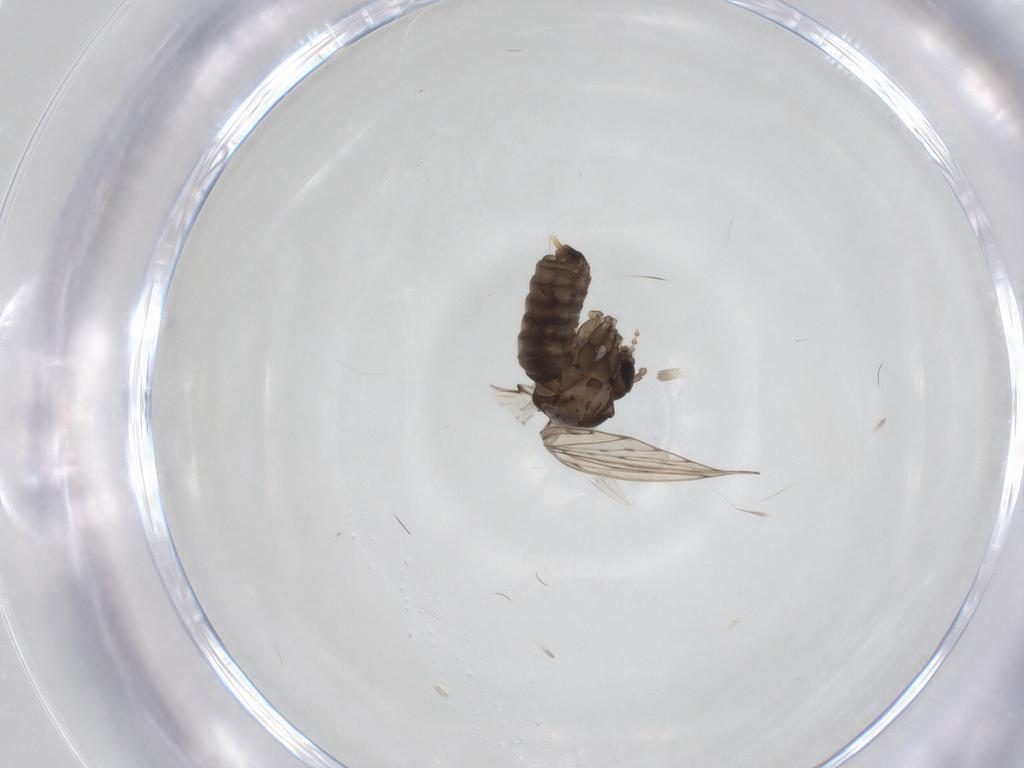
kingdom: Animalia
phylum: Arthropoda
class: Insecta
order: Diptera
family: Psychodidae
